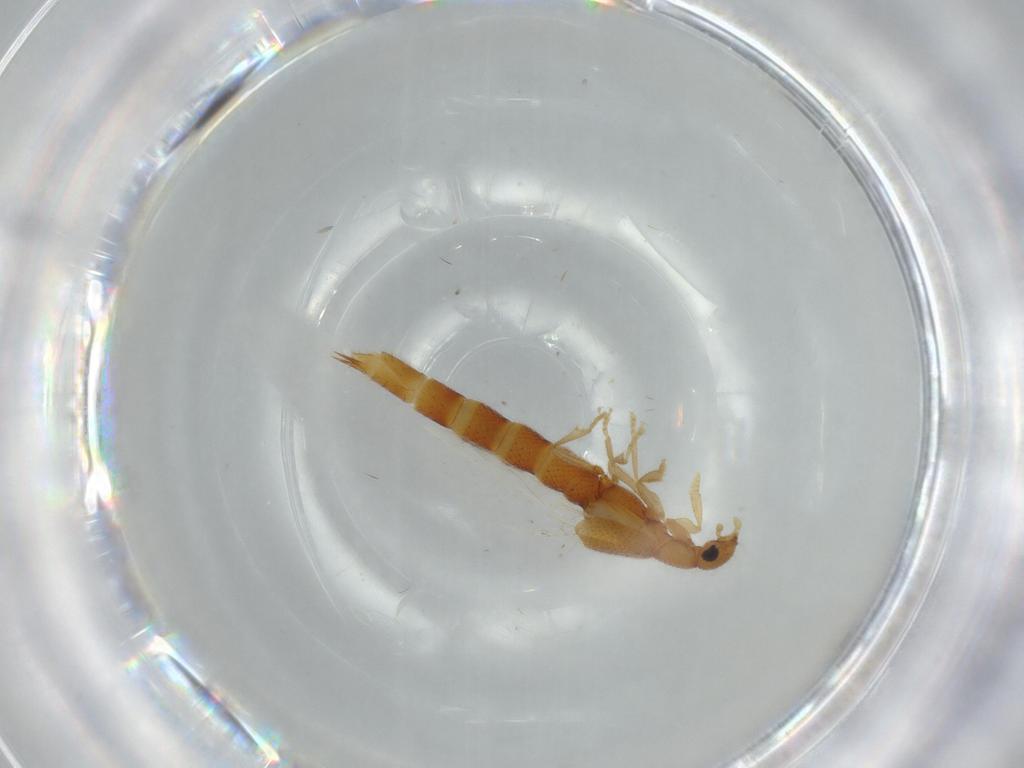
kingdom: Animalia
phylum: Arthropoda
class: Insecta
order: Coleoptera
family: Staphylinidae
